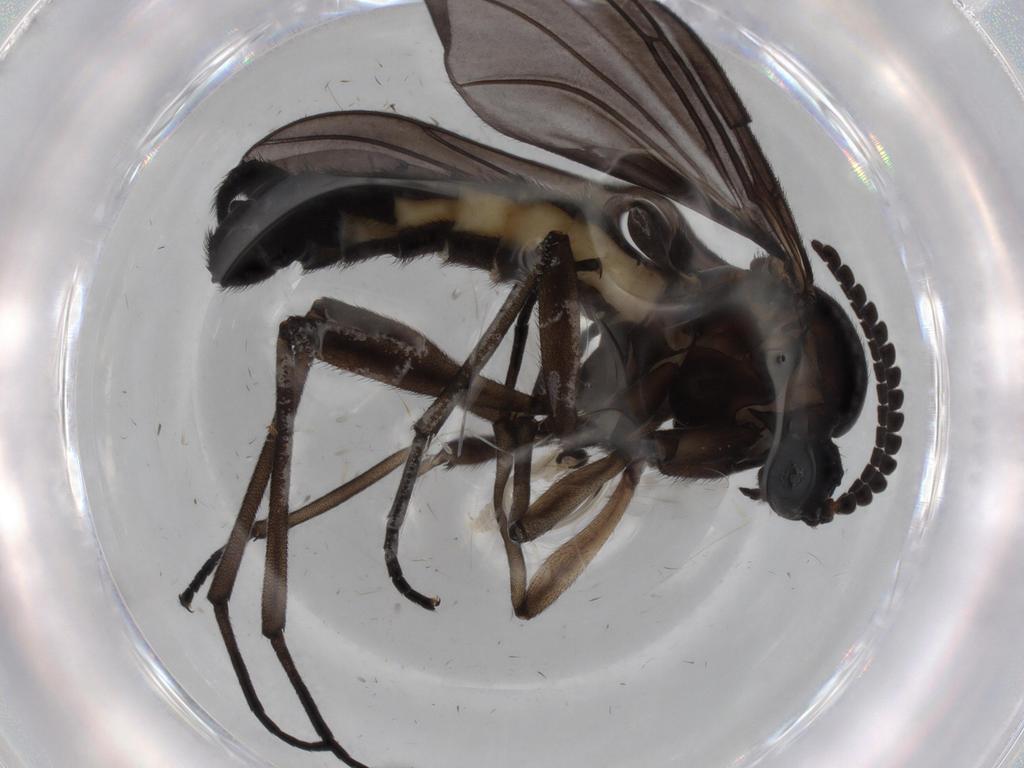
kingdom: Animalia
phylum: Arthropoda
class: Insecta
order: Diptera
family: Sciaridae
